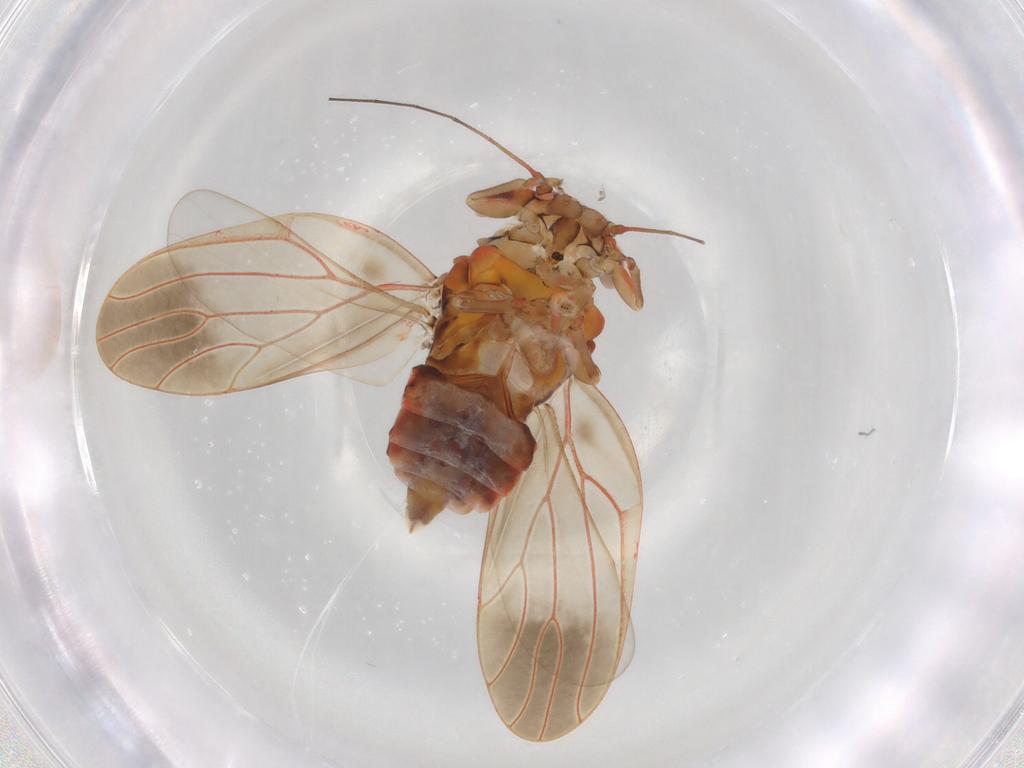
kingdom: Animalia
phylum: Arthropoda
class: Insecta
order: Hemiptera
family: Aphalaridae
